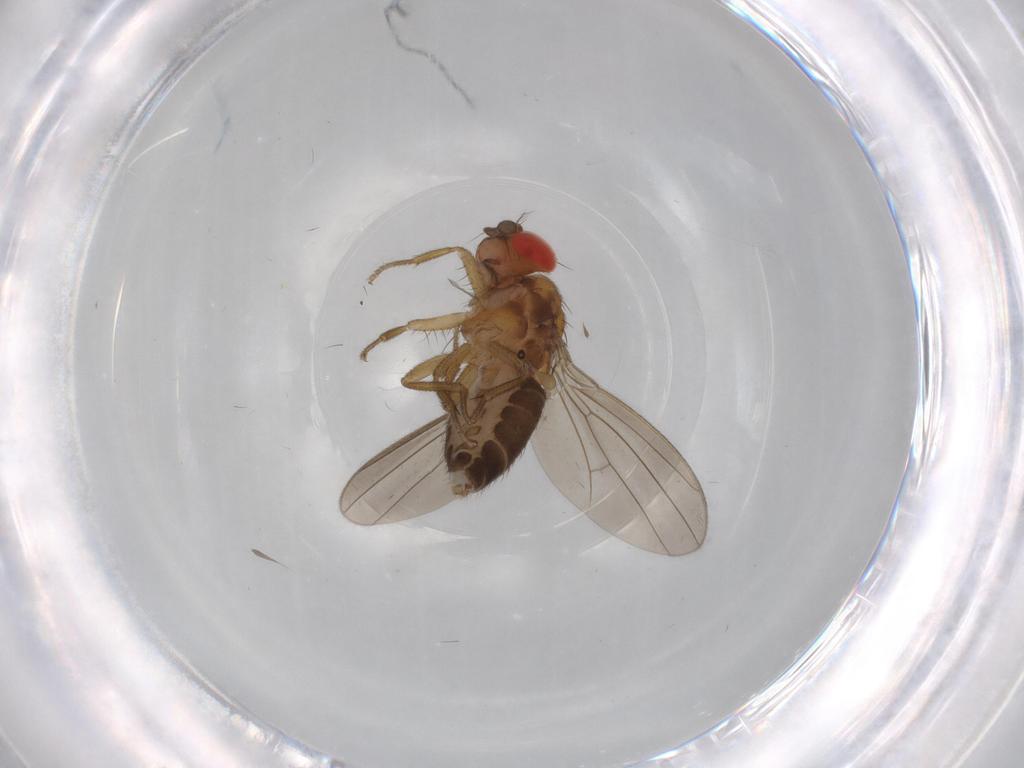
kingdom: Animalia
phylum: Arthropoda
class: Insecta
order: Diptera
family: Drosophilidae
